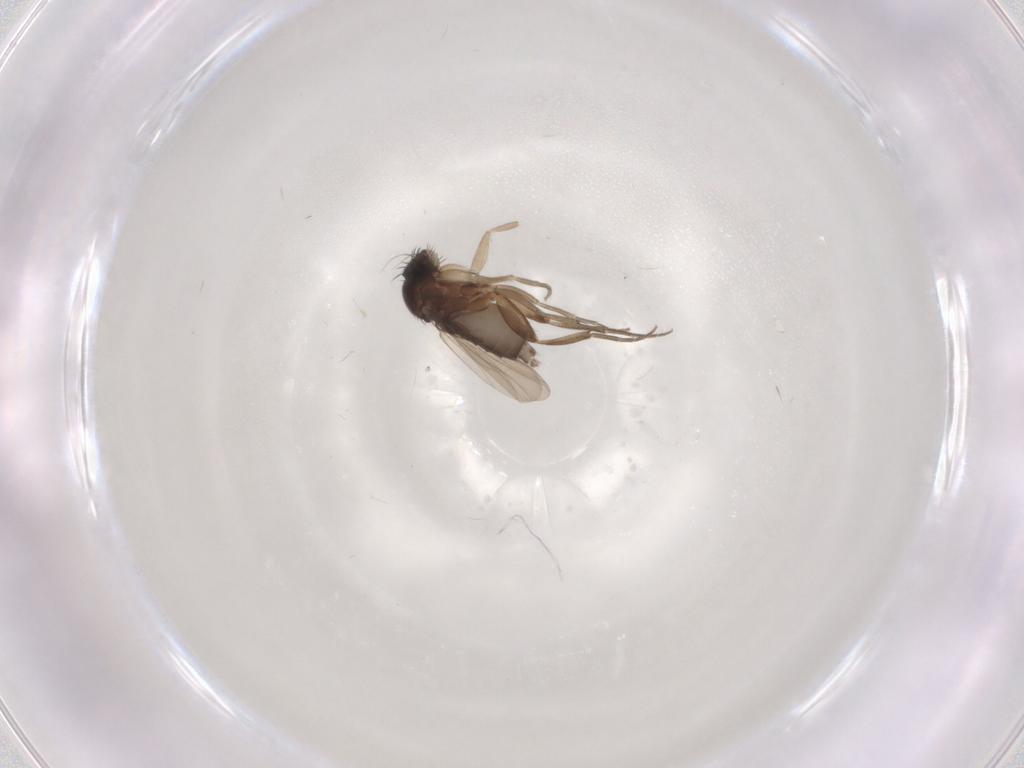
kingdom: Animalia
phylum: Arthropoda
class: Insecta
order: Diptera
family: Phoridae
